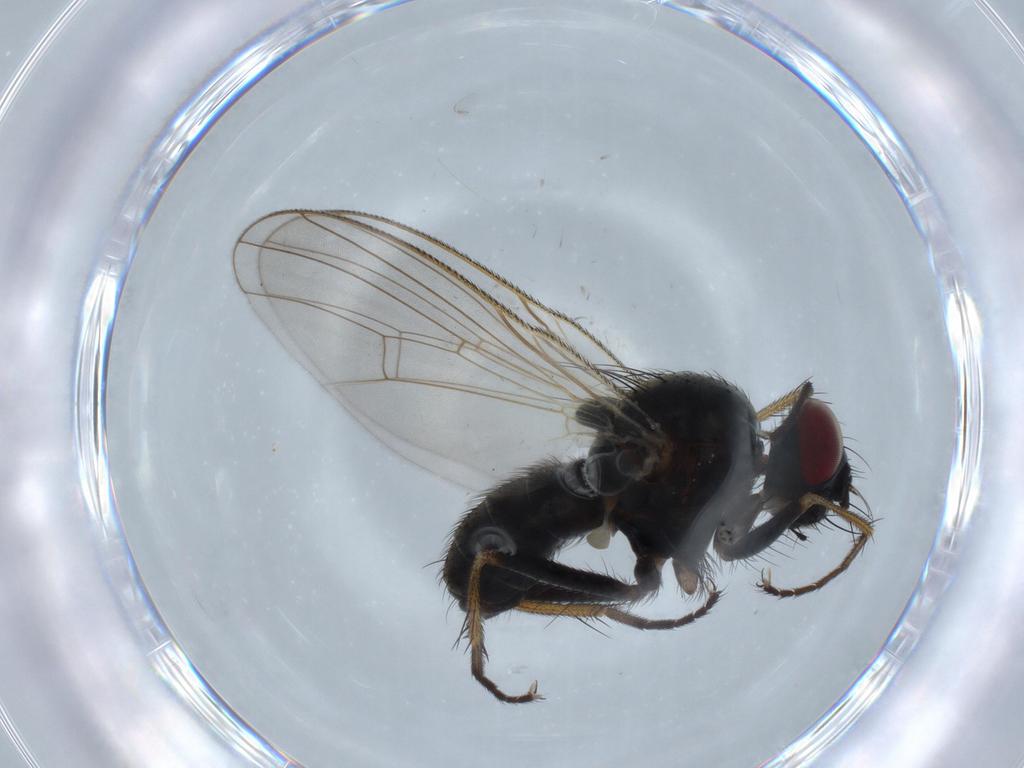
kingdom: Animalia
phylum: Arthropoda
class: Insecta
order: Diptera
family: Muscidae
